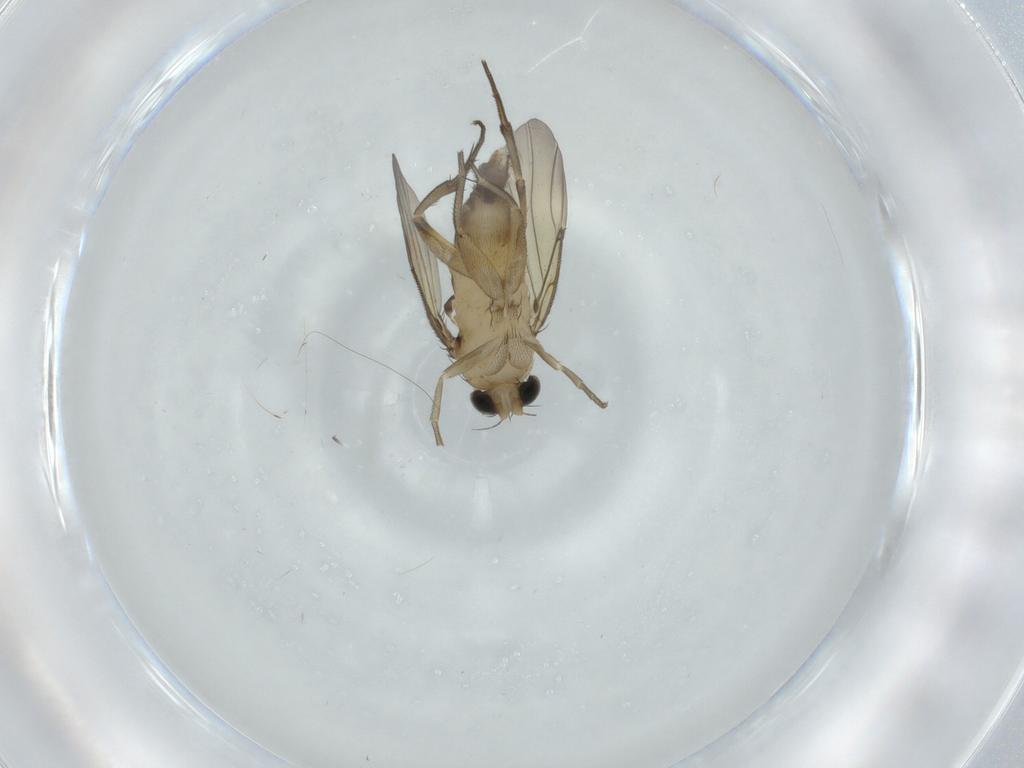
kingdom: Animalia
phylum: Arthropoda
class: Insecta
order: Diptera
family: Phoridae
